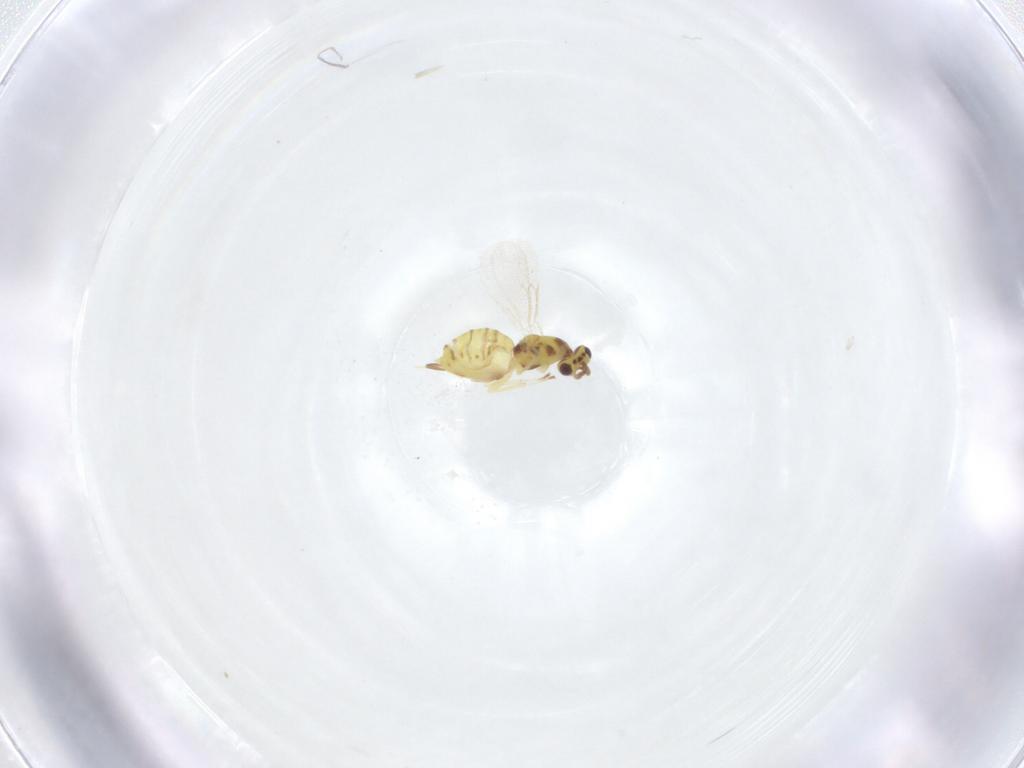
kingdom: Animalia
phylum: Arthropoda
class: Insecta
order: Hymenoptera
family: Eulophidae
